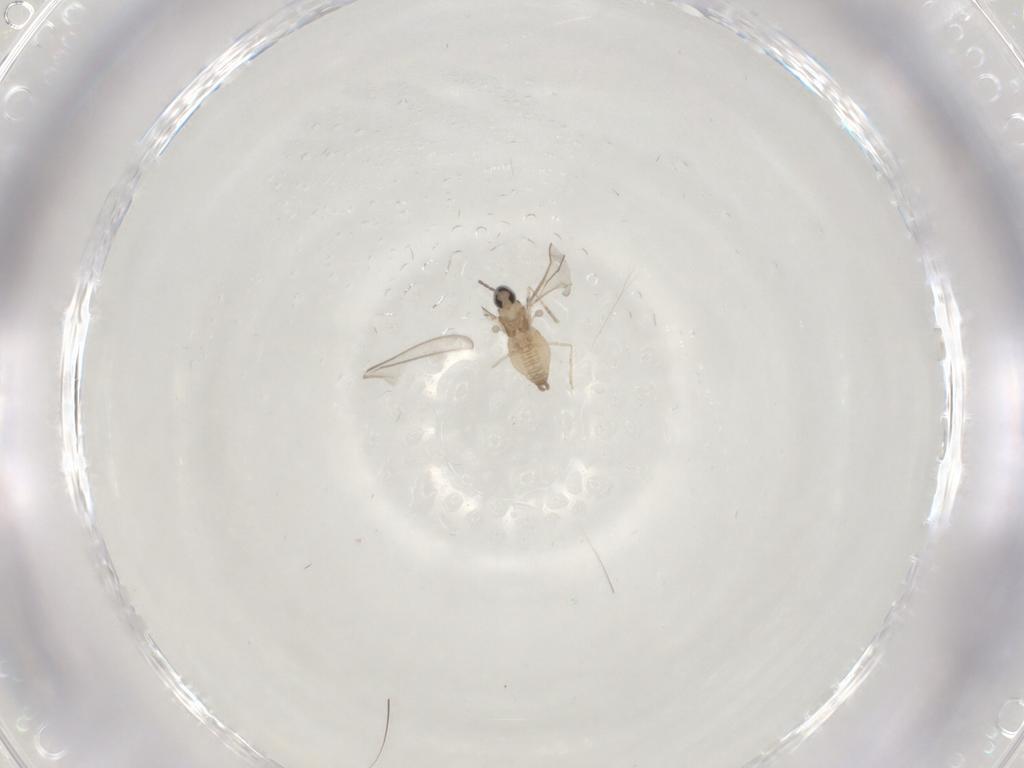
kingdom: Animalia
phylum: Arthropoda
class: Insecta
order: Diptera
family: Cecidomyiidae
